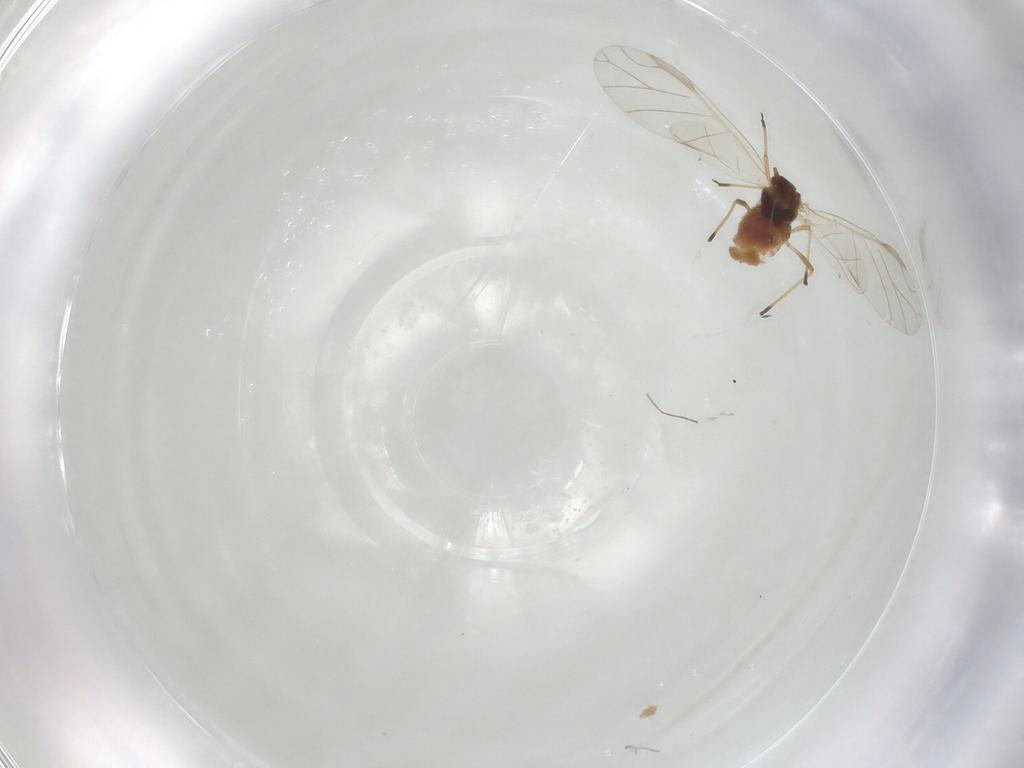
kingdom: Animalia
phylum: Arthropoda
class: Insecta
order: Hemiptera
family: Aphididae
